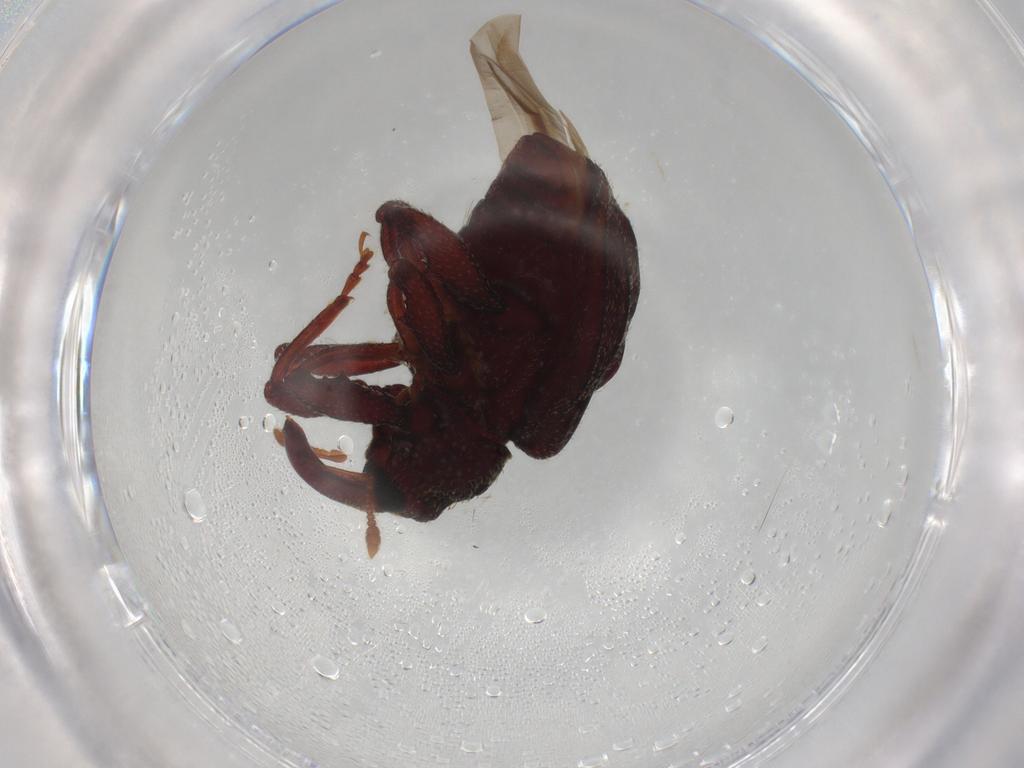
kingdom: Animalia
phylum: Arthropoda
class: Insecta
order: Coleoptera
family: Curculionidae
